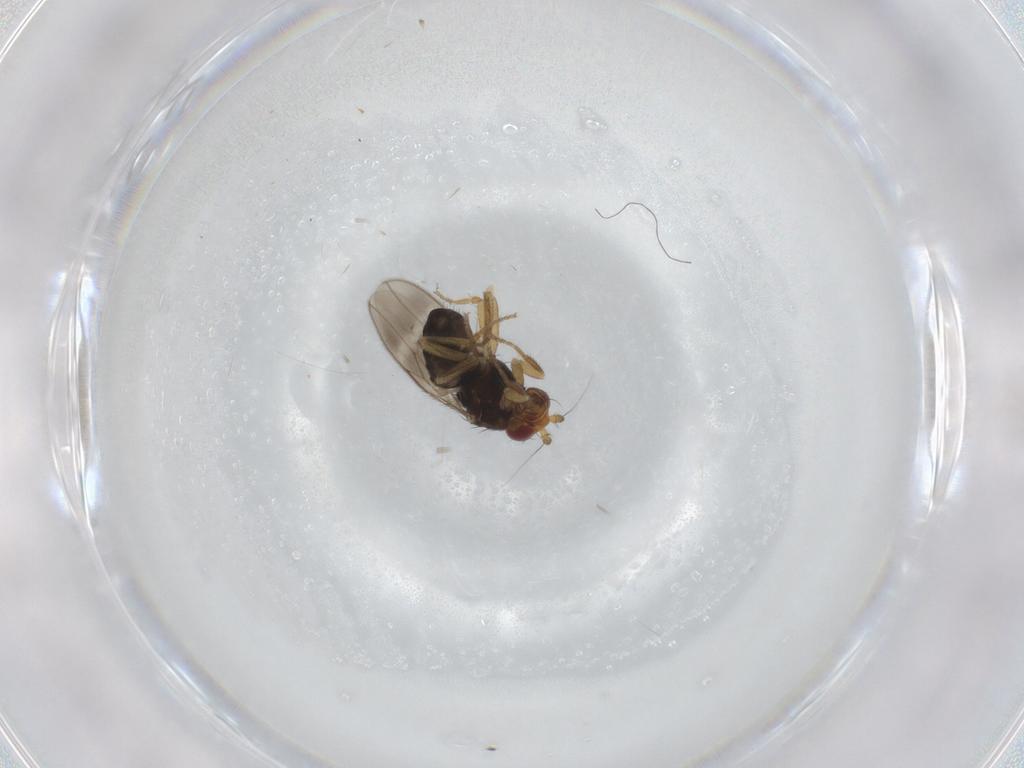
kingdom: Animalia
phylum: Arthropoda
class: Insecta
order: Diptera
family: Sphaeroceridae
